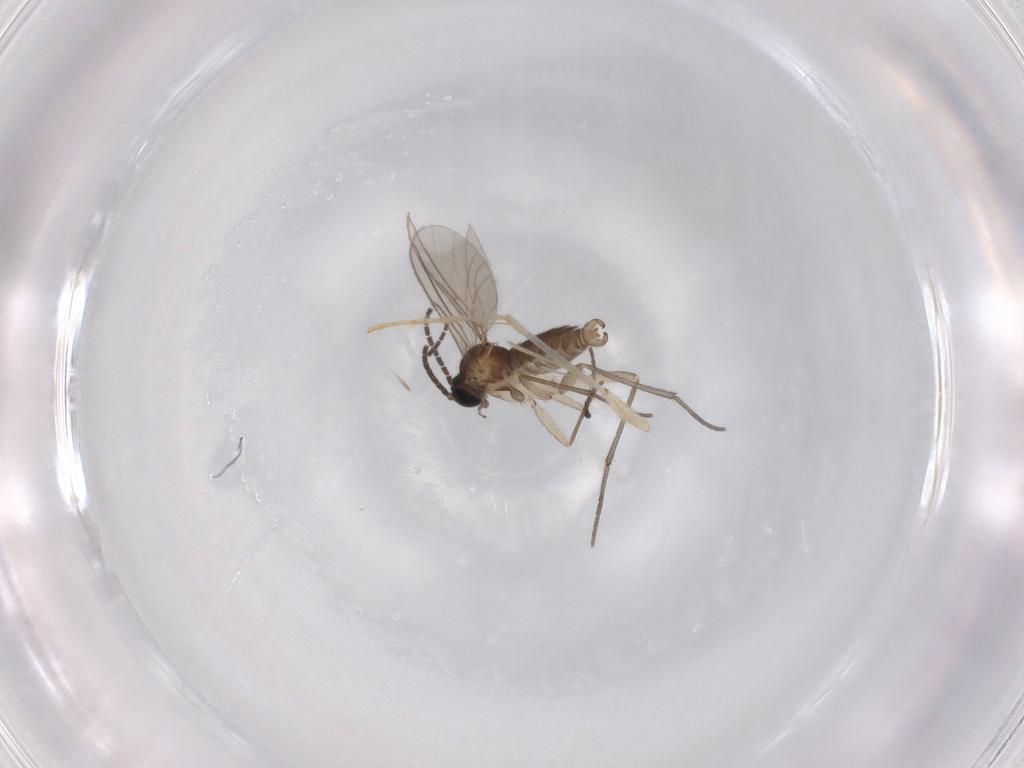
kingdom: Animalia
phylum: Arthropoda
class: Insecta
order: Diptera
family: Sciaridae
